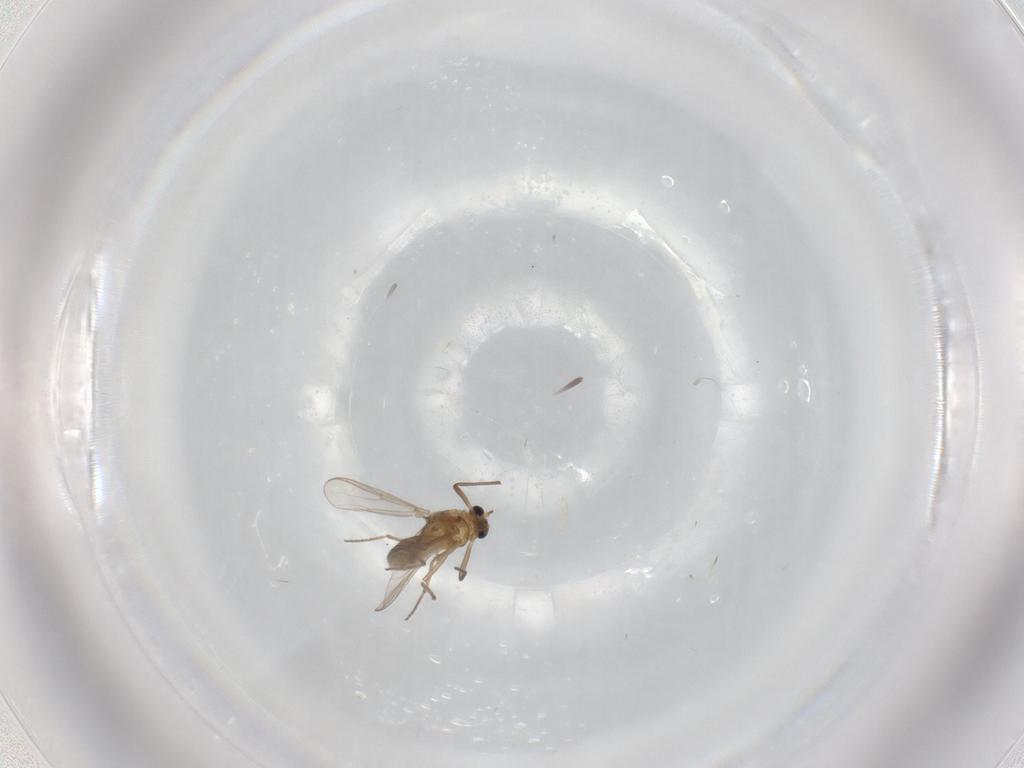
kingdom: Animalia
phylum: Arthropoda
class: Insecta
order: Diptera
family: Culicidae
